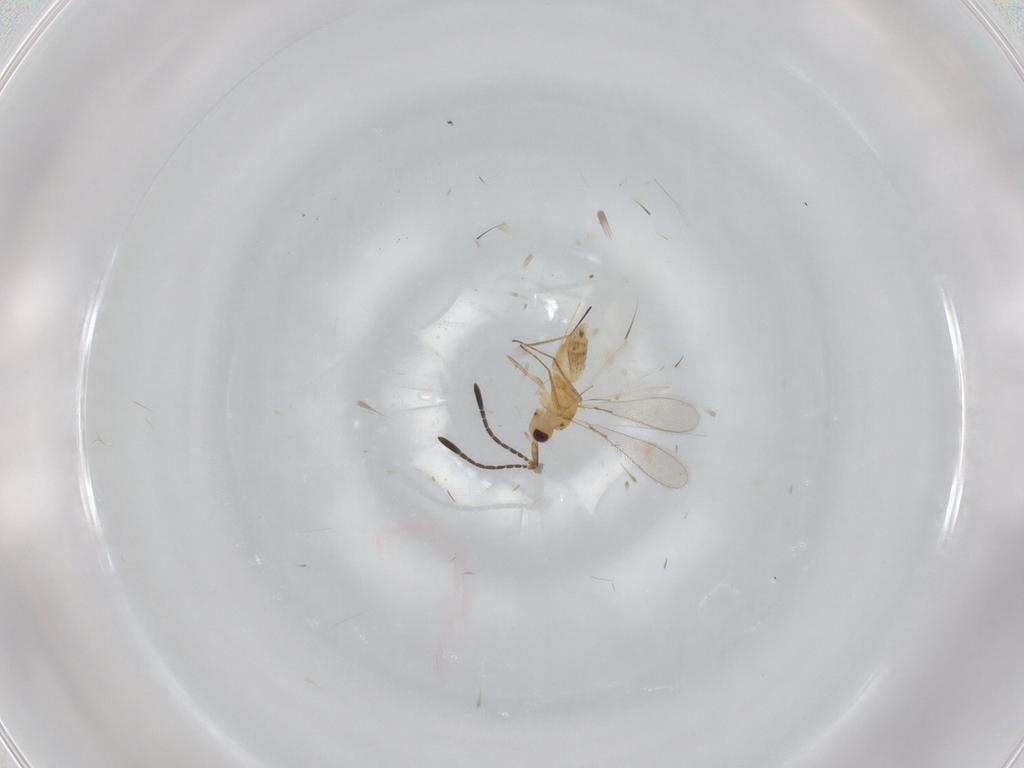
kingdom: Animalia
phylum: Arthropoda
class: Insecta
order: Hymenoptera
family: Mymaridae
